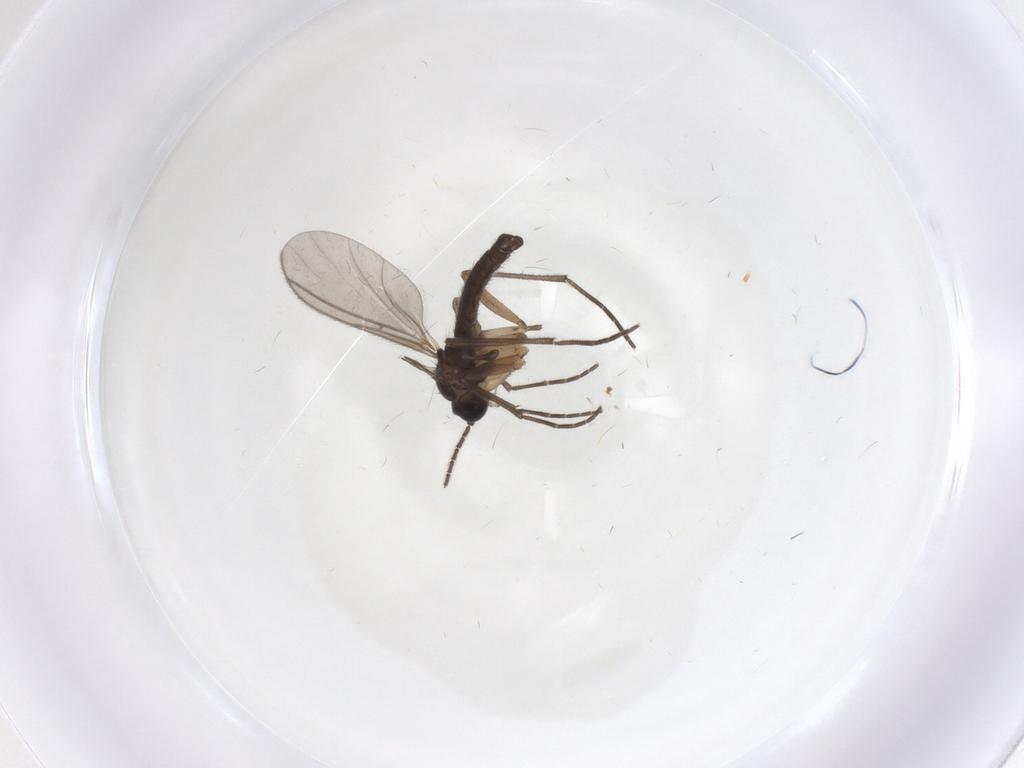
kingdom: Animalia
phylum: Arthropoda
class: Insecta
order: Diptera
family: Sciaridae
